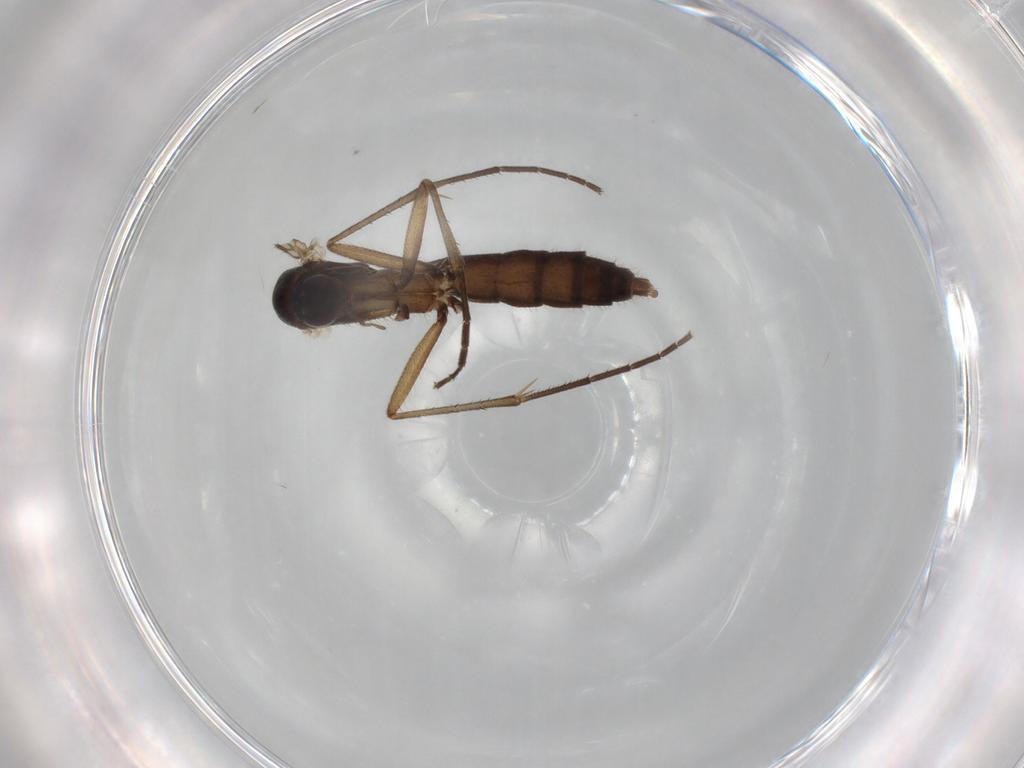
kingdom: Animalia
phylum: Arthropoda
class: Insecta
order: Diptera
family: Mycetophilidae
